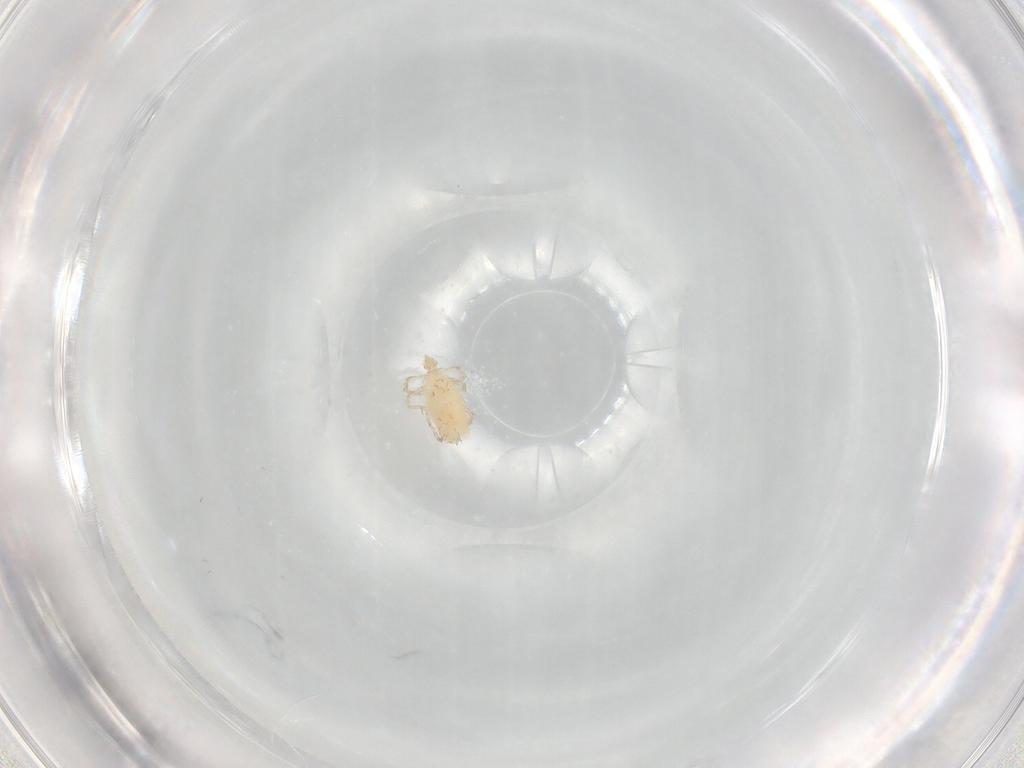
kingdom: Animalia
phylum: Arthropoda
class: Arachnida
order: Trombidiformes
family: Erythraeidae
